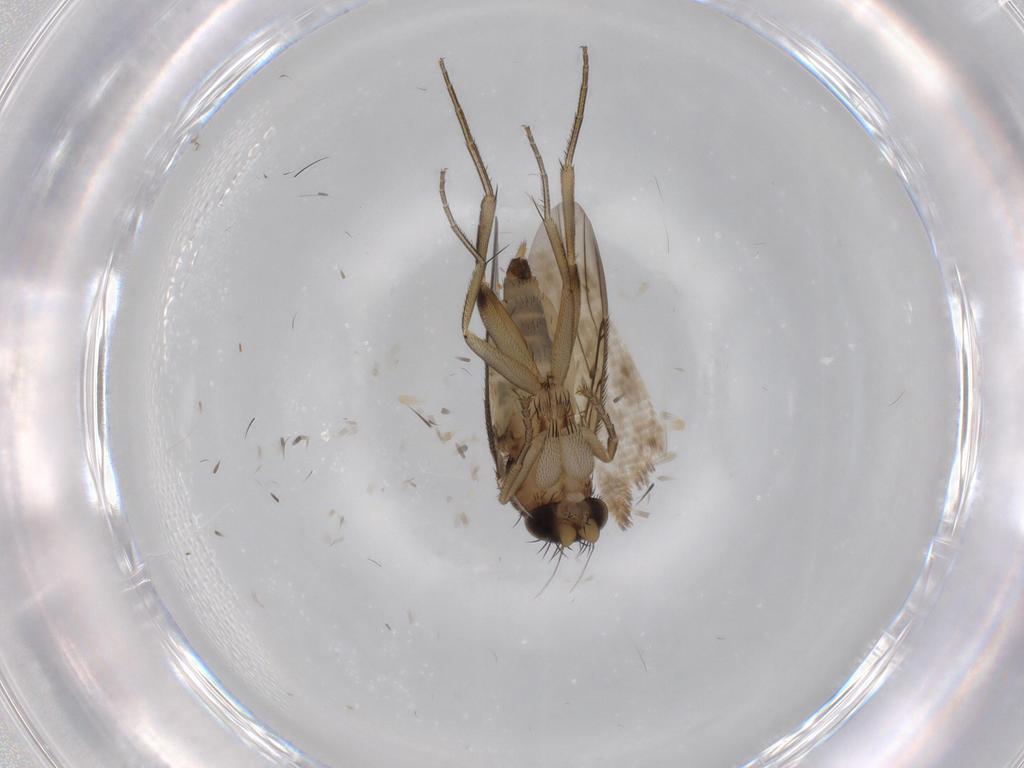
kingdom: Animalia
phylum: Arthropoda
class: Insecta
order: Diptera
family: Phoridae
